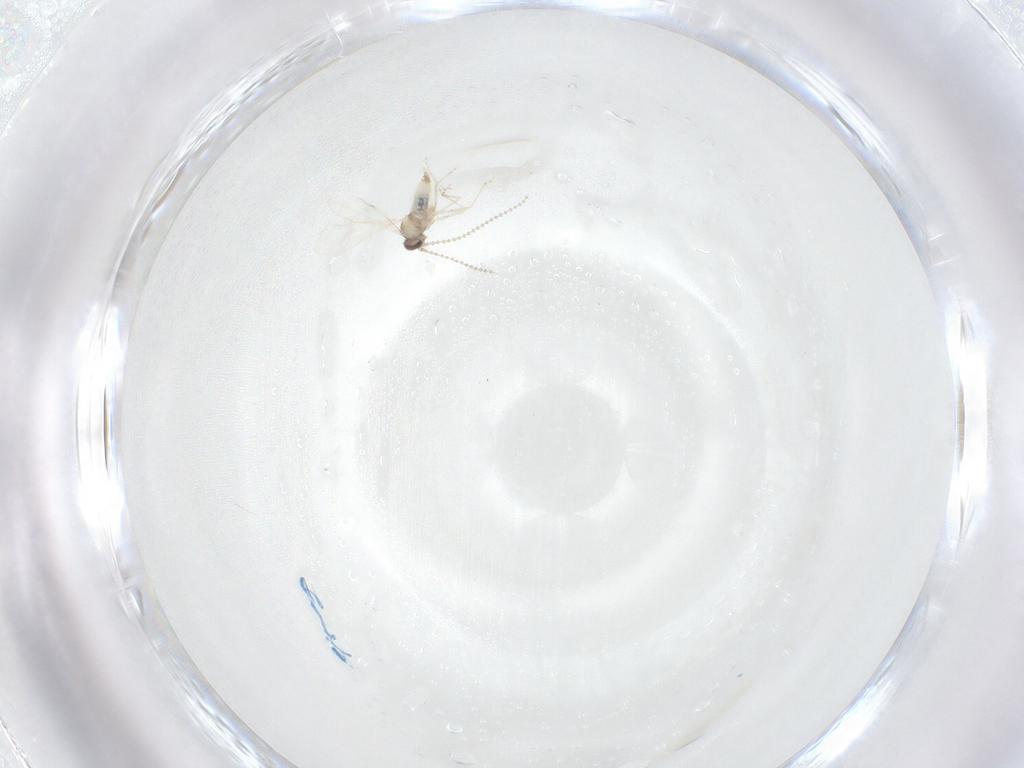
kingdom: Animalia
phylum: Arthropoda
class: Insecta
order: Diptera
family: Cecidomyiidae
